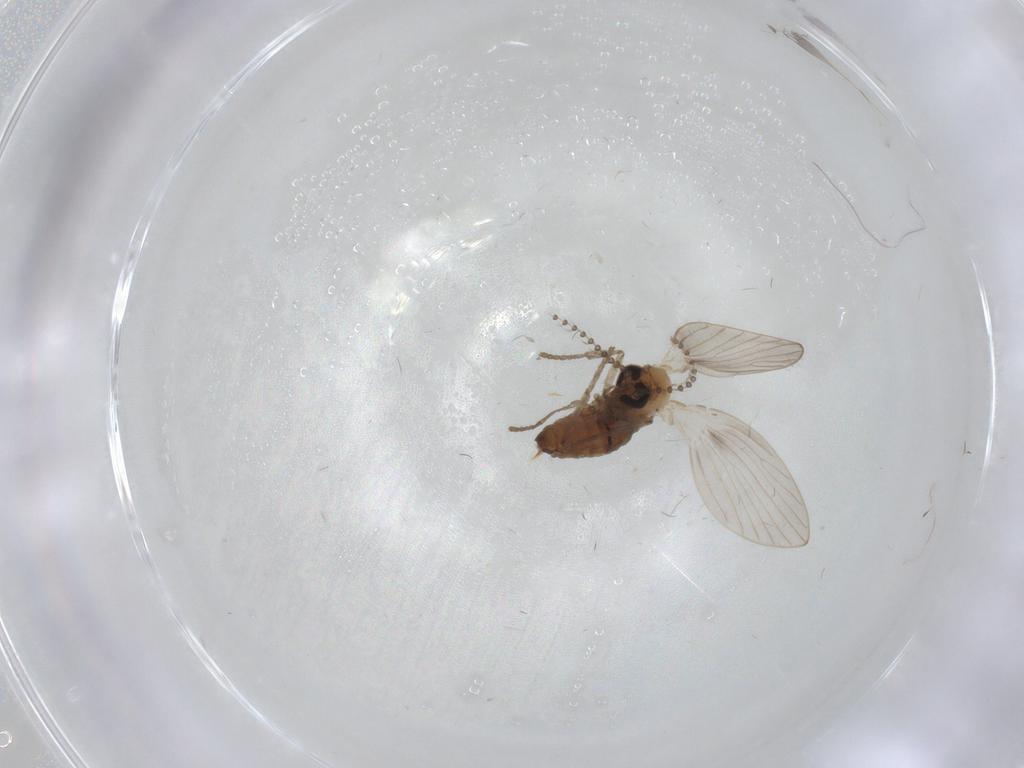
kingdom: Animalia
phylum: Arthropoda
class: Insecta
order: Diptera
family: Psychodidae
